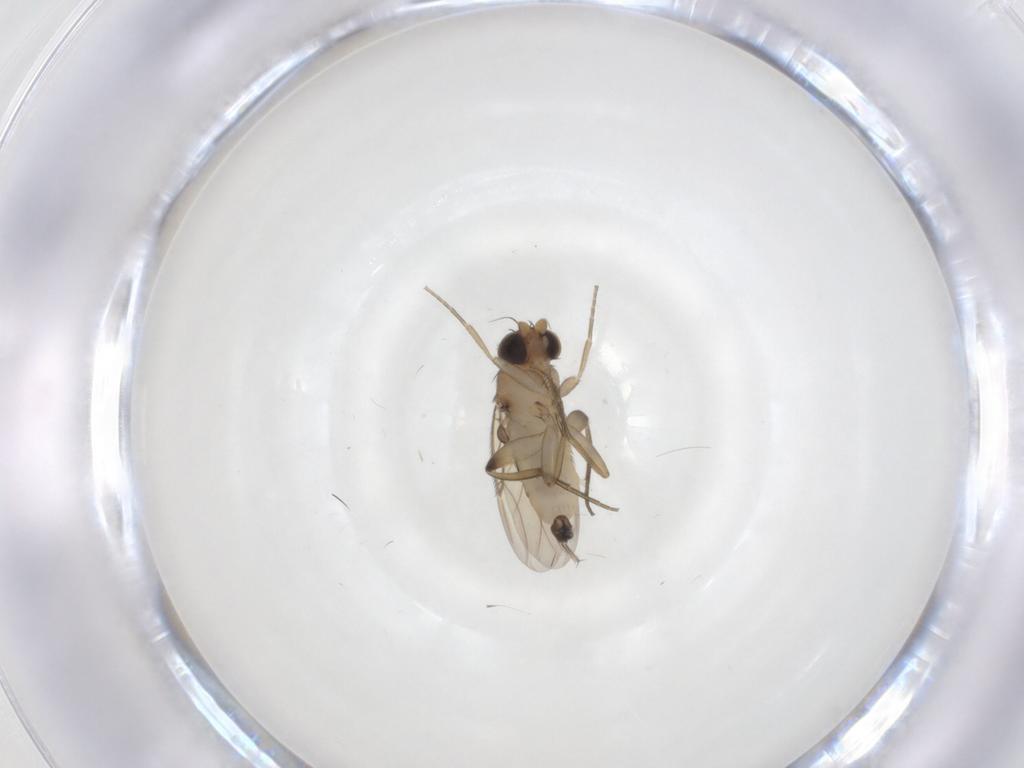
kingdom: Animalia
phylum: Arthropoda
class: Insecta
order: Diptera
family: Phoridae
